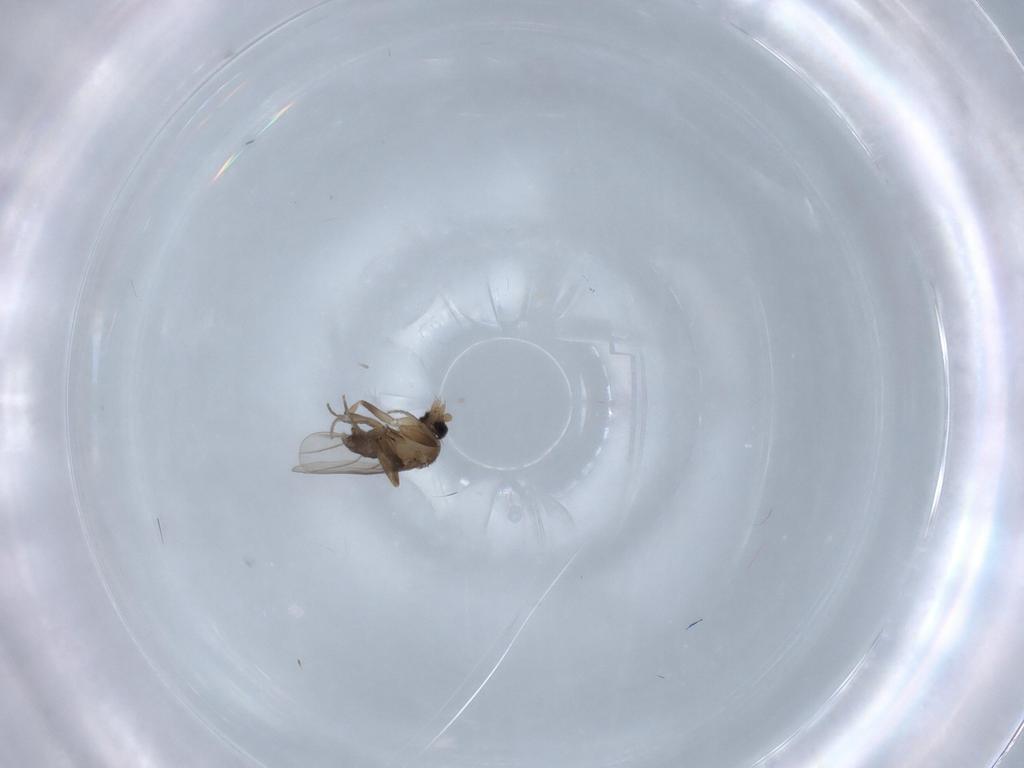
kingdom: Animalia
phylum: Arthropoda
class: Insecta
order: Diptera
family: Phoridae
